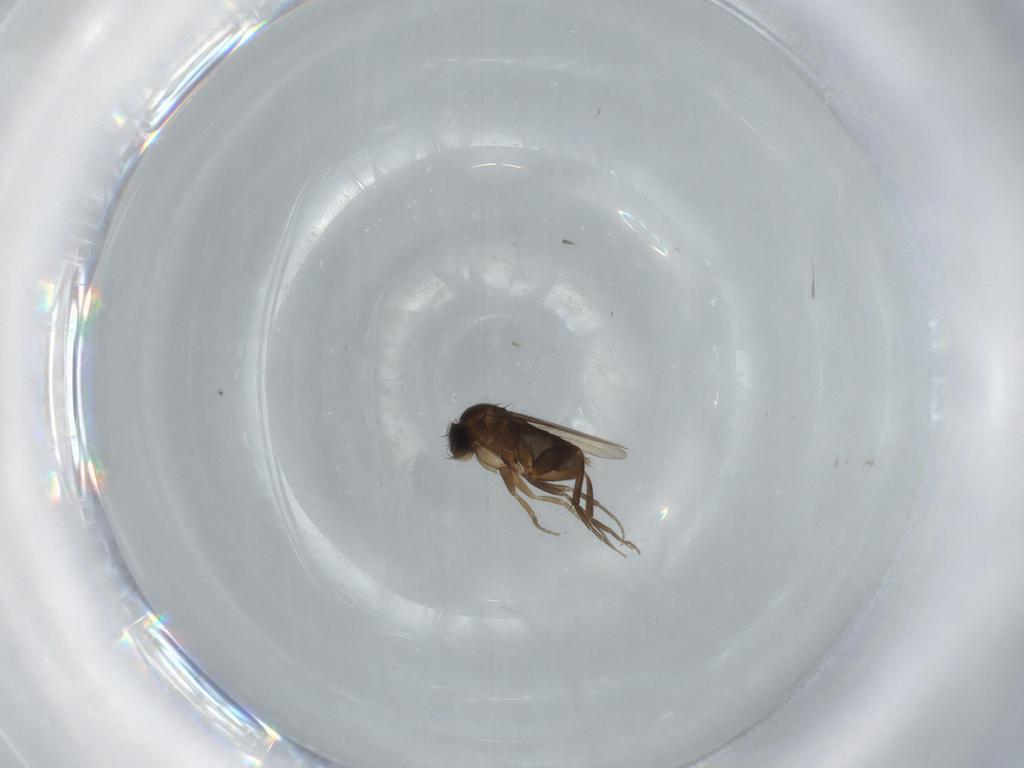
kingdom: Animalia
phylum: Arthropoda
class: Insecta
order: Diptera
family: Phoridae
